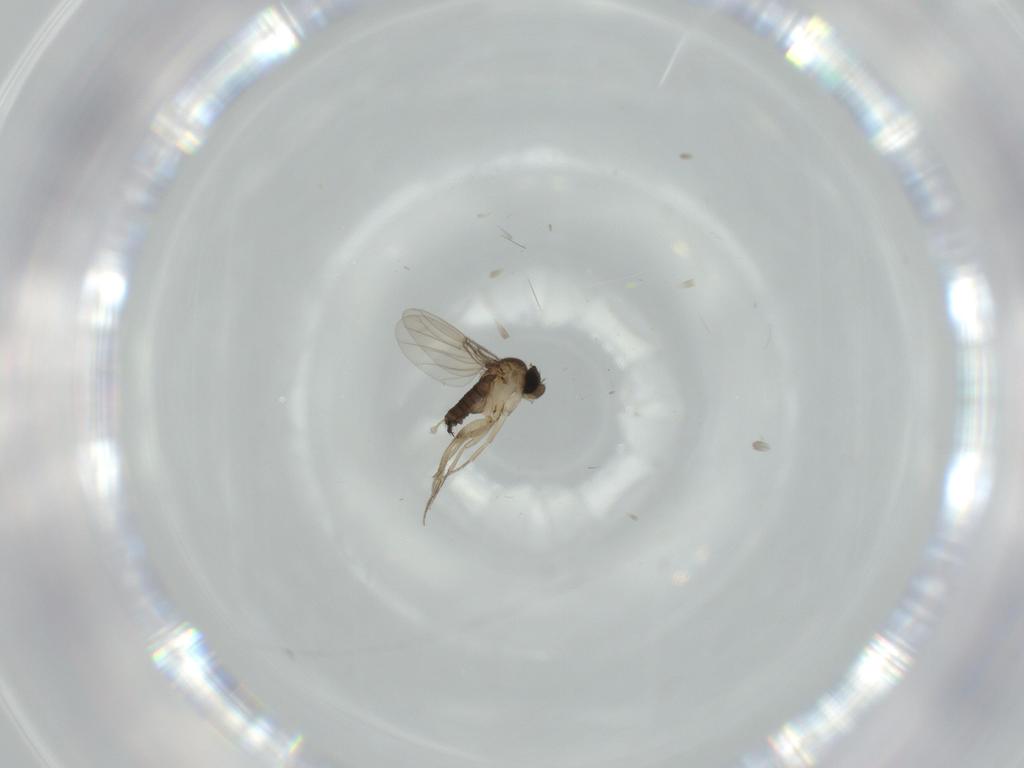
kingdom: Animalia
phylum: Arthropoda
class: Insecta
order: Diptera
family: Phoridae
